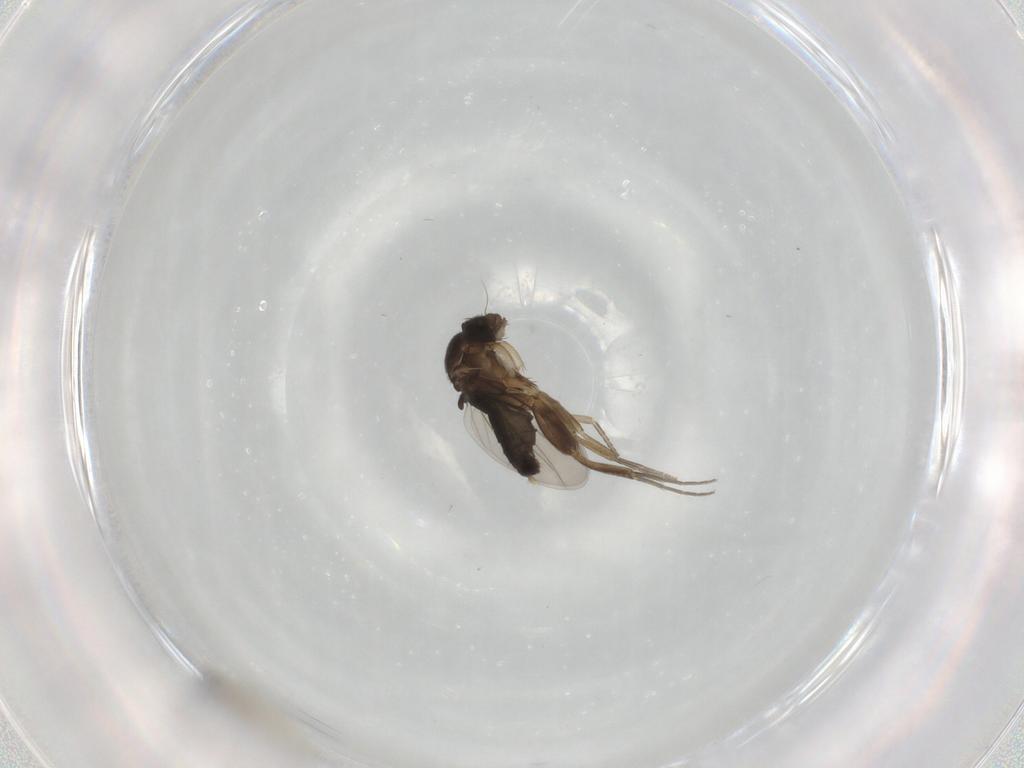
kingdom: Animalia
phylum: Arthropoda
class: Insecta
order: Diptera
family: Phoridae
